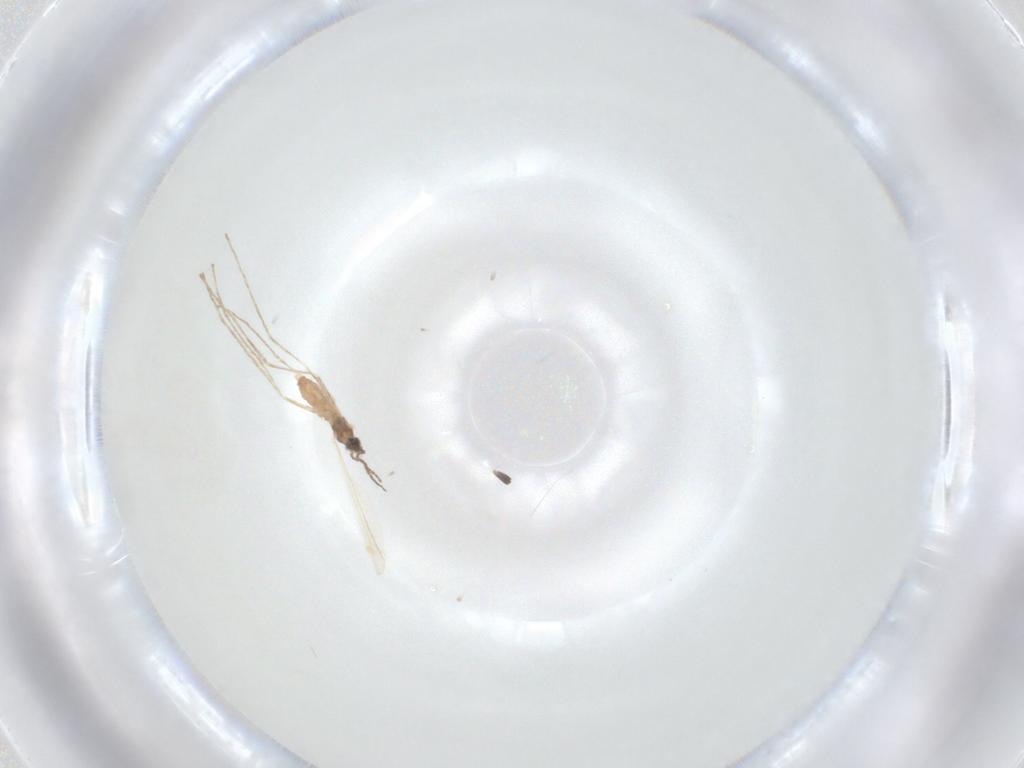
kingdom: Animalia
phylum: Arthropoda
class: Insecta
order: Diptera
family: Cecidomyiidae
